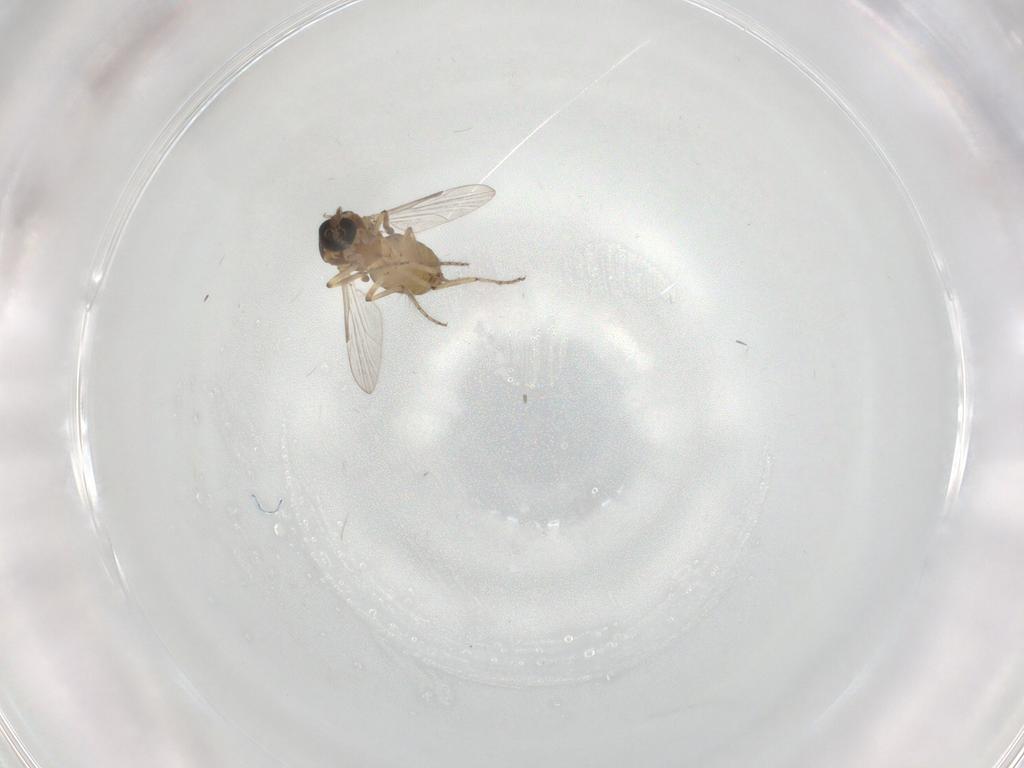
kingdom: Animalia
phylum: Arthropoda
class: Insecta
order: Diptera
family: Ceratopogonidae
